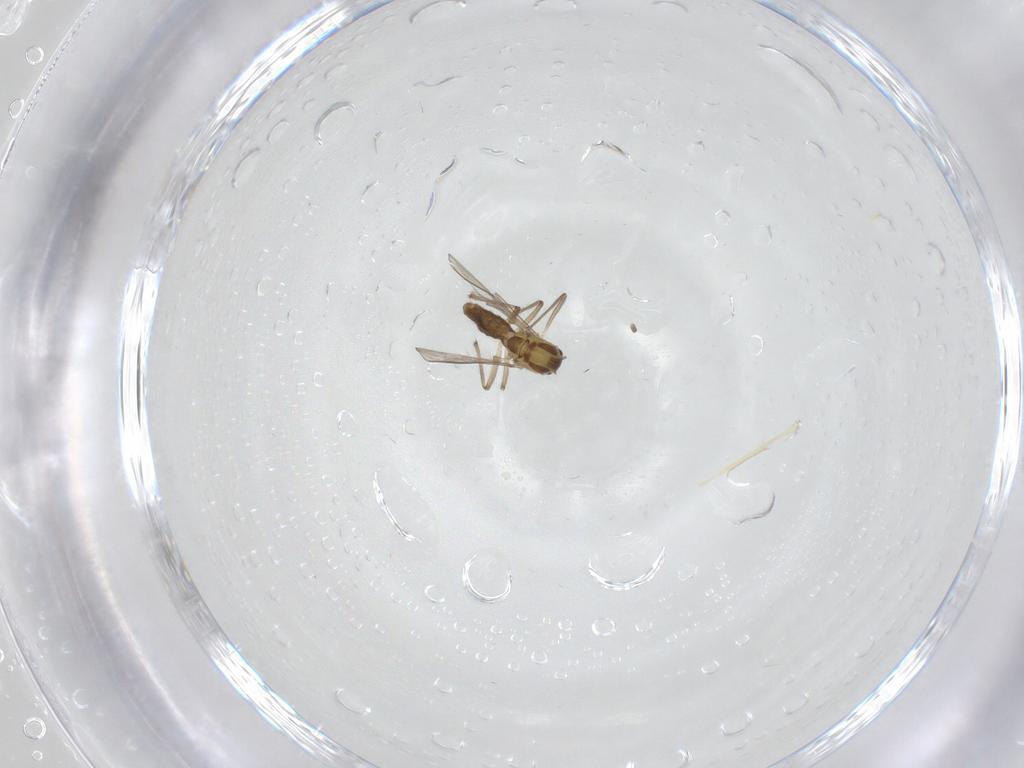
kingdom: Animalia
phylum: Arthropoda
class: Insecta
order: Diptera
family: Chironomidae
